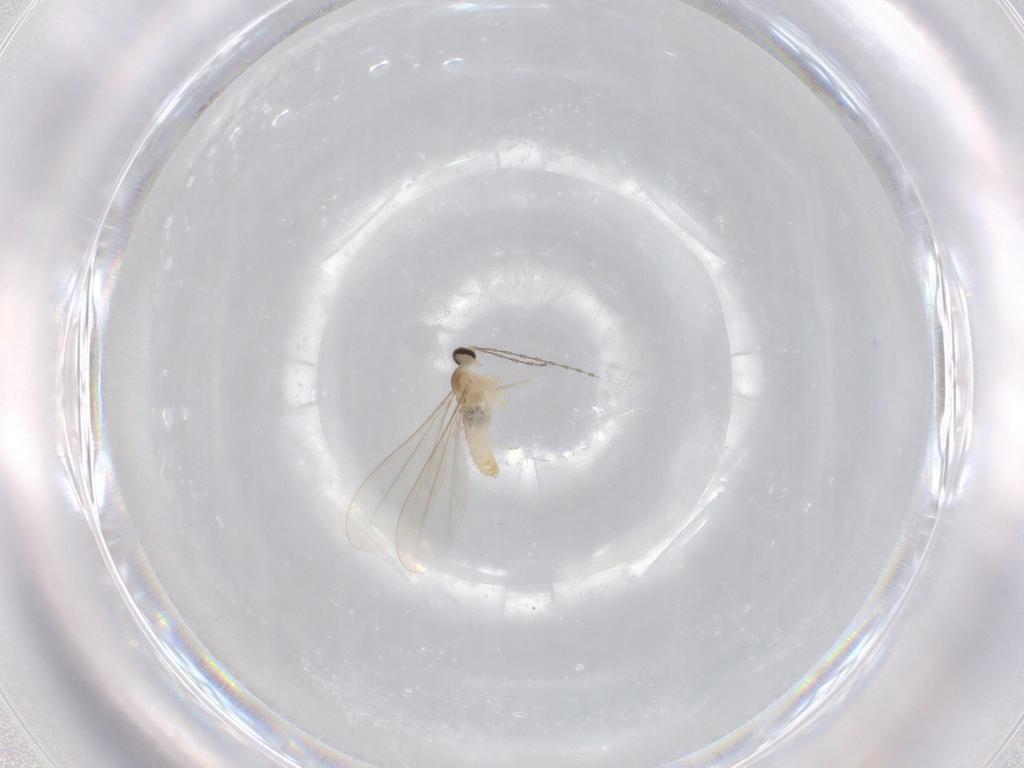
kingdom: Animalia
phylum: Arthropoda
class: Insecta
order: Diptera
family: Cecidomyiidae
